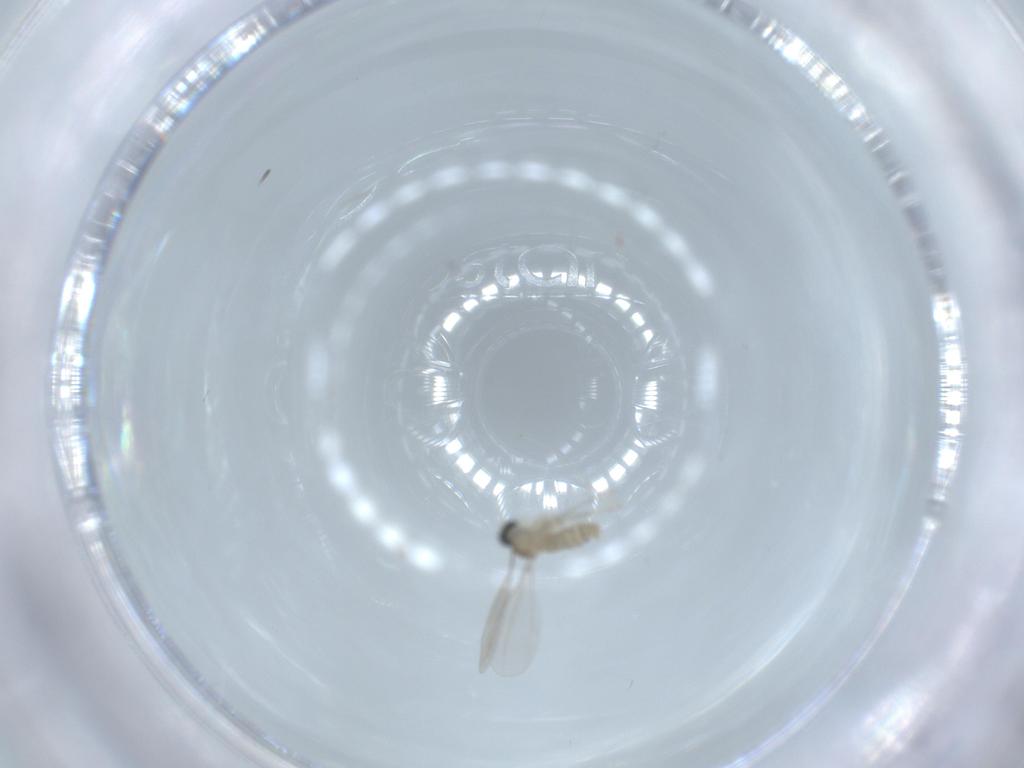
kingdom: Animalia
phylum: Arthropoda
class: Insecta
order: Diptera
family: Cecidomyiidae
